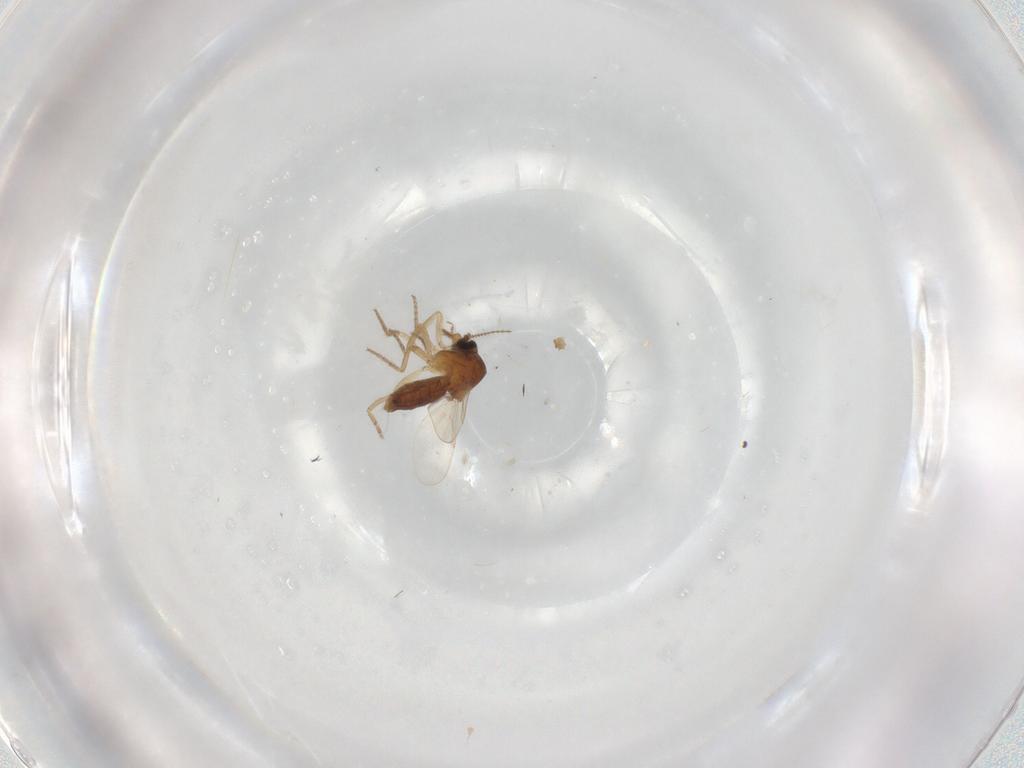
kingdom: Animalia
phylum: Arthropoda
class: Insecta
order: Diptera
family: Ceratopogonidae
